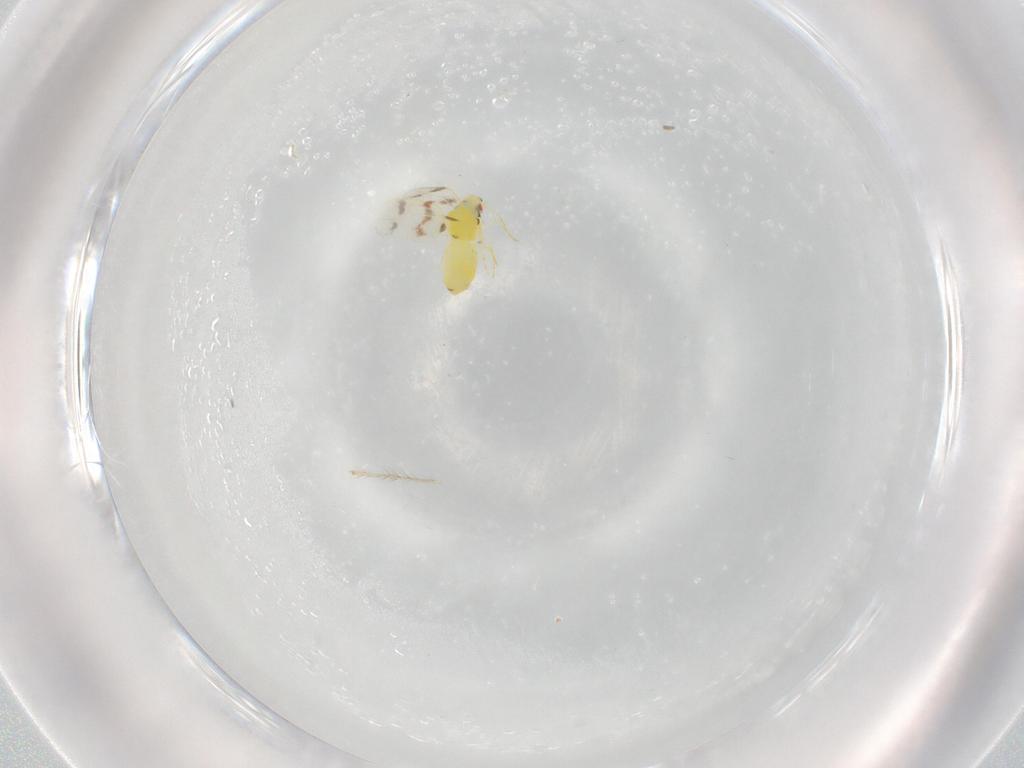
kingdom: Animalia
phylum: Arthropoda
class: Insecta
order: Hemiptera
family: Aleyrodidae
